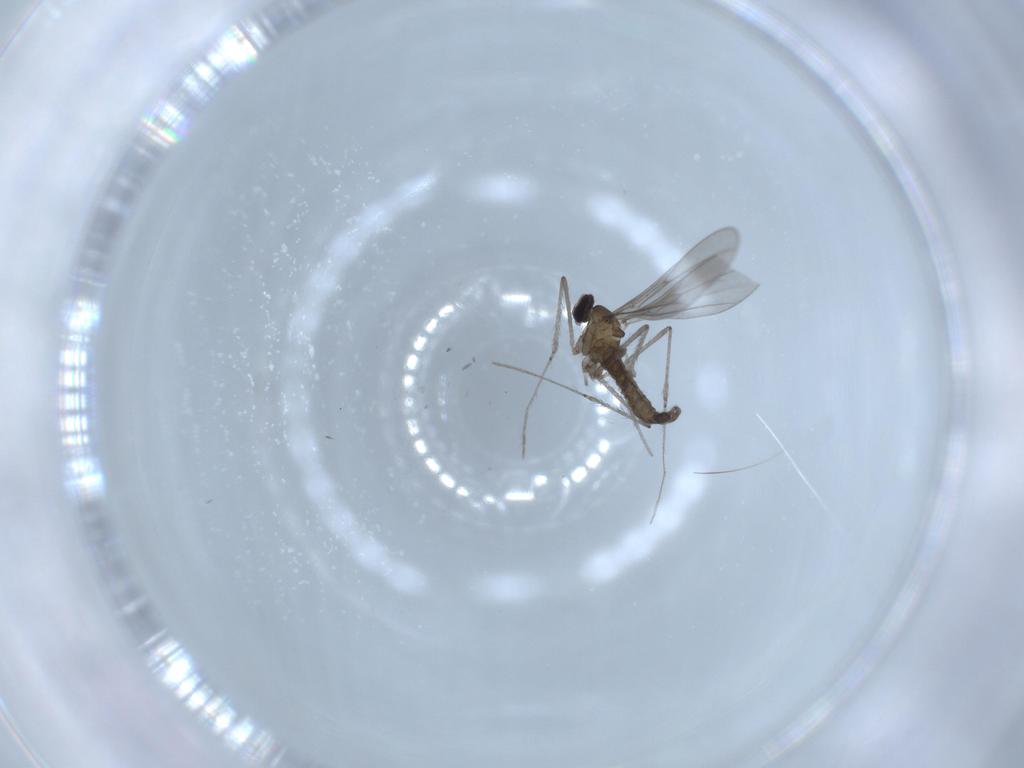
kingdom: Animalia
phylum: Arthropoda
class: Insecta
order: Diptera
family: Cecidomyiidae
